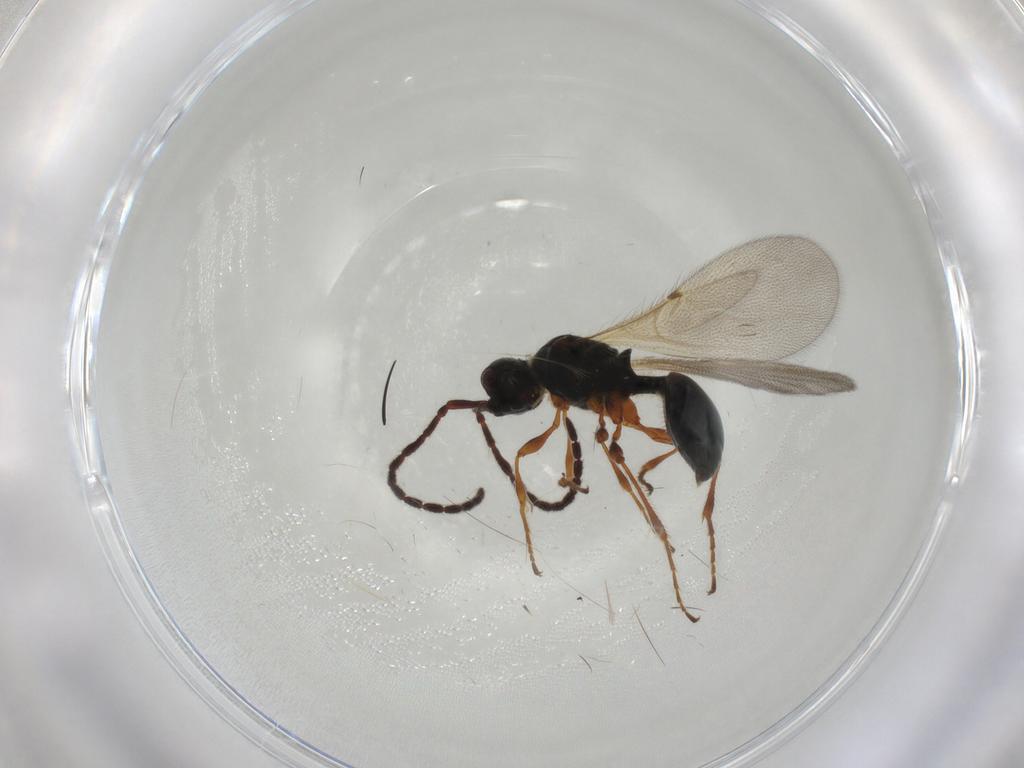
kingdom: Animalia
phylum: Arthropoda
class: Insecta
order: Hymenoptera
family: Diapriidae
